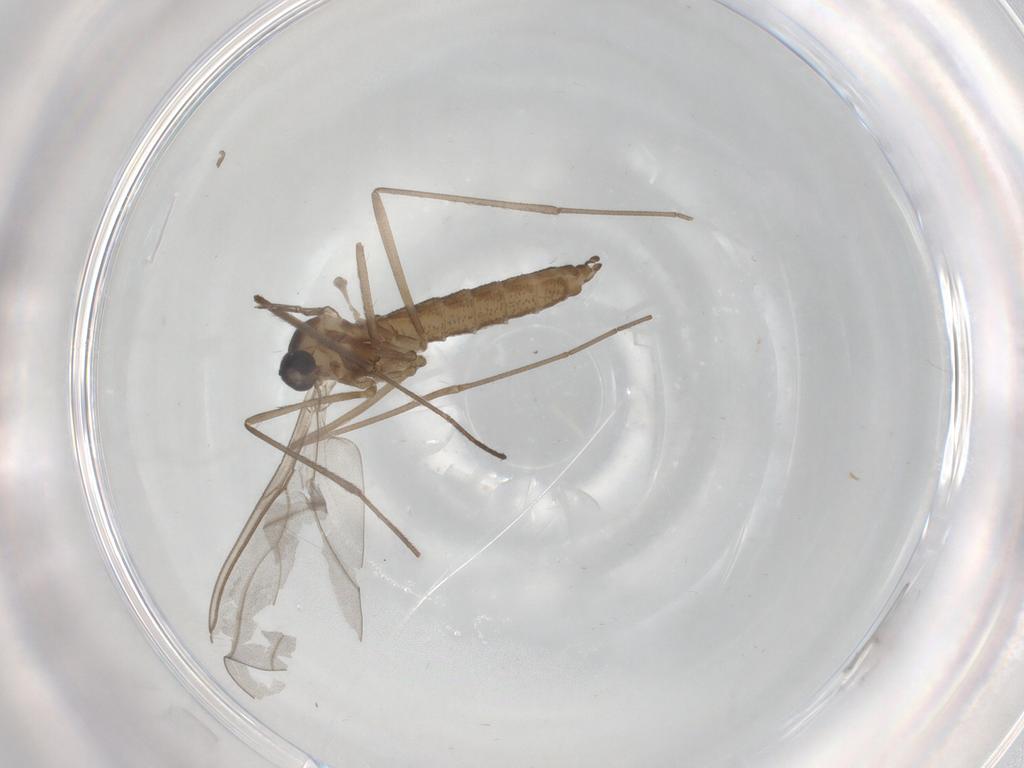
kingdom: Animalia
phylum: Arthropoda
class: Insecta
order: Diptera
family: Cecidomyiidae
